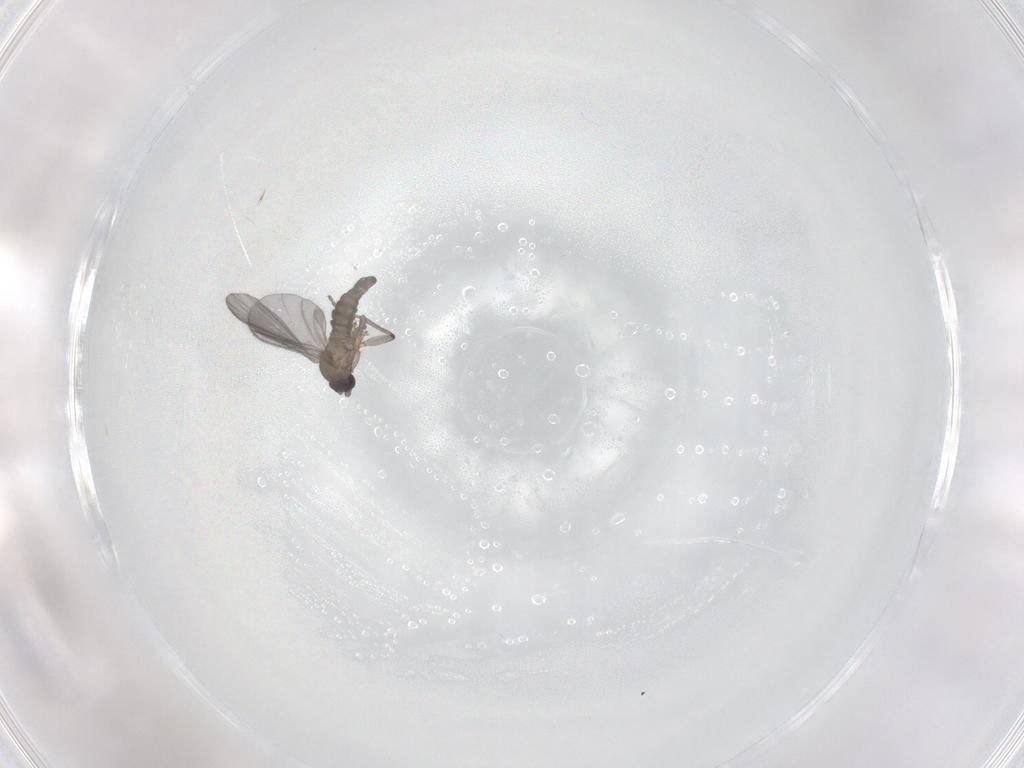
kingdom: Animalia
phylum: Arthropoda
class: Insecta
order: Diptera
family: Sciaridae
